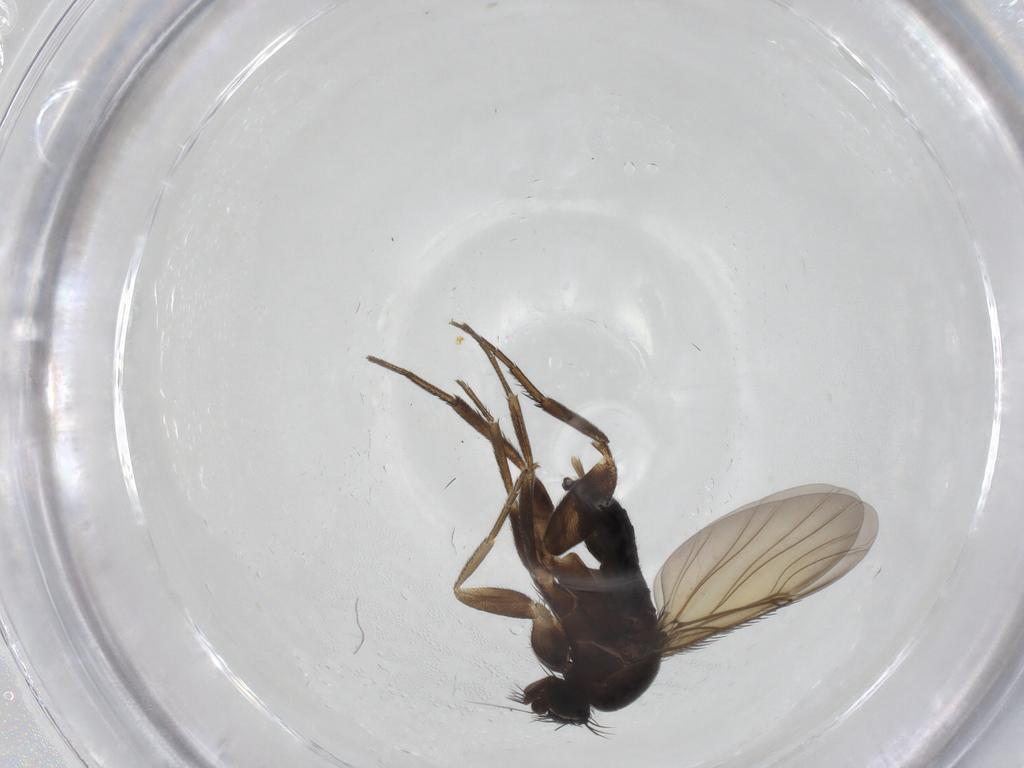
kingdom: Animalia
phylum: Arthropoda
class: Insecta
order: Diptera
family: Phoridae
